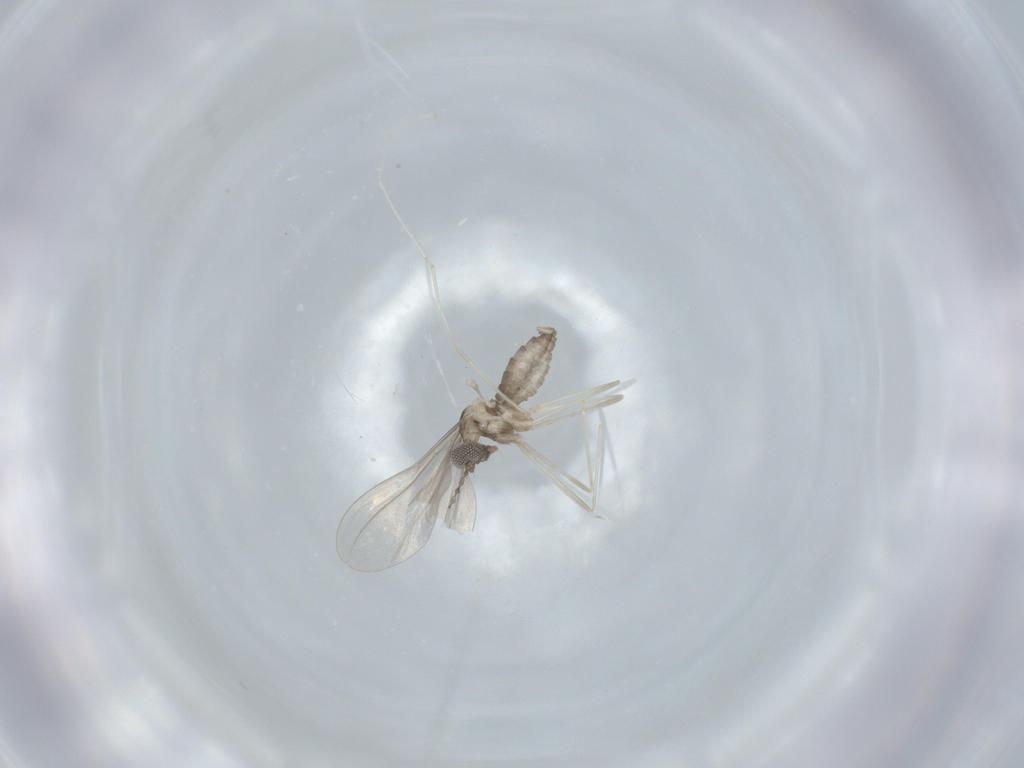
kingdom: Animalia
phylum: Arthropoda
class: Insecta
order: Diptera
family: Cecidomyiidae
